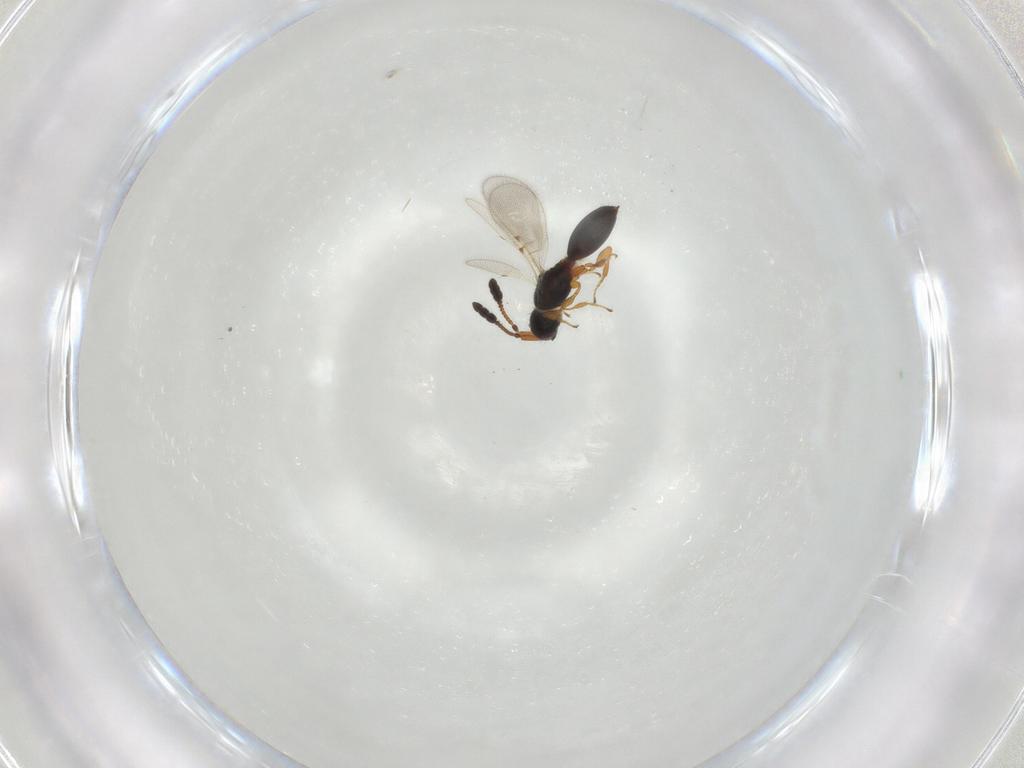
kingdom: Animalia
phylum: Arthropoda
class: Insecta
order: Hymenoptera
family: Diapriidae
